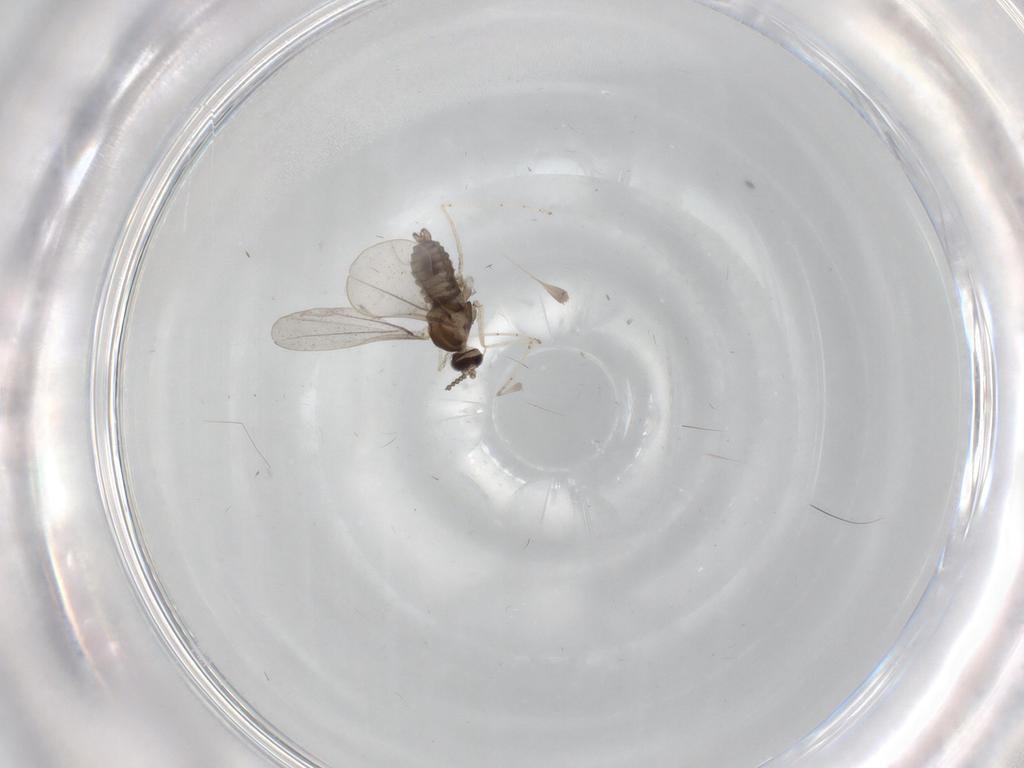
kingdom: Animalia
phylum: Arthropoda
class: Insecta
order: Diptera
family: Cecidomyiidae
